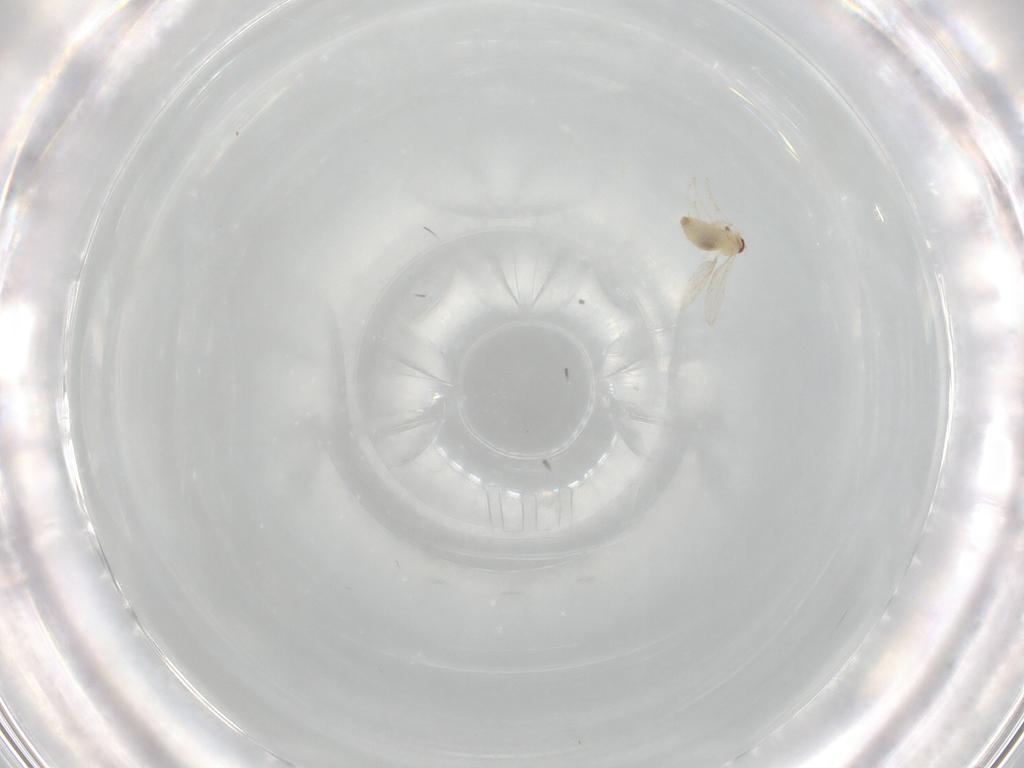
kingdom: Animalia
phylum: Arthropoda
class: Insecta
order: Diptera
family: Cecidomyiidae
